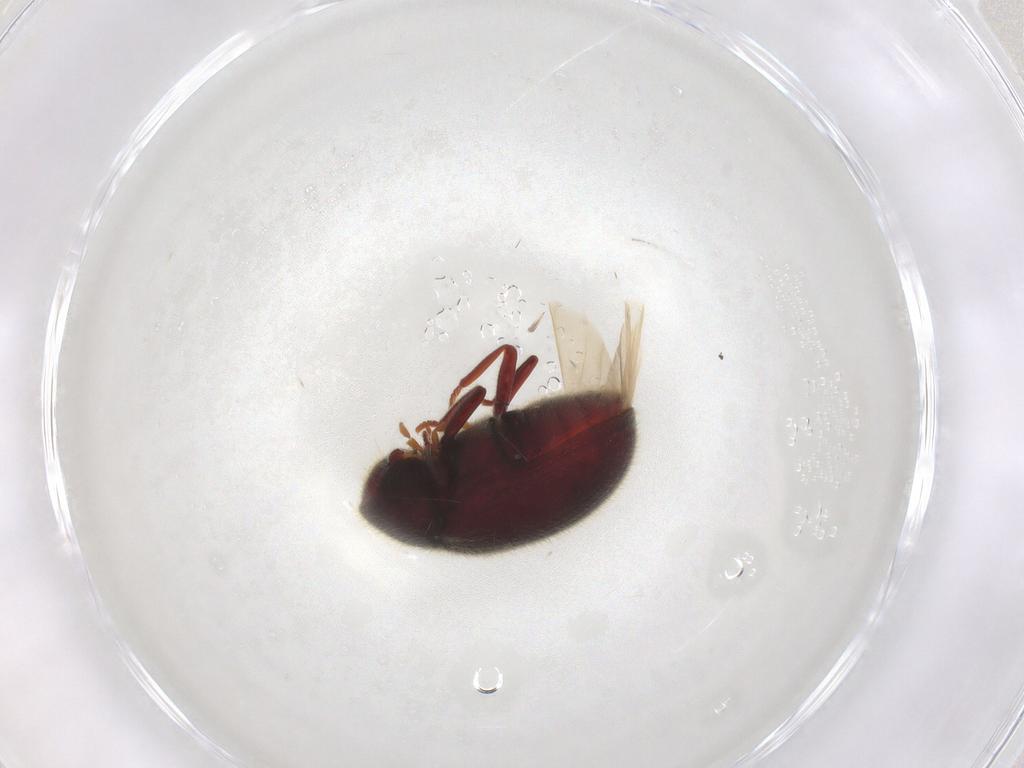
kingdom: Animalia
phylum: Arthropoda
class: Insecta
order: Coleoptera
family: Ptinidae
